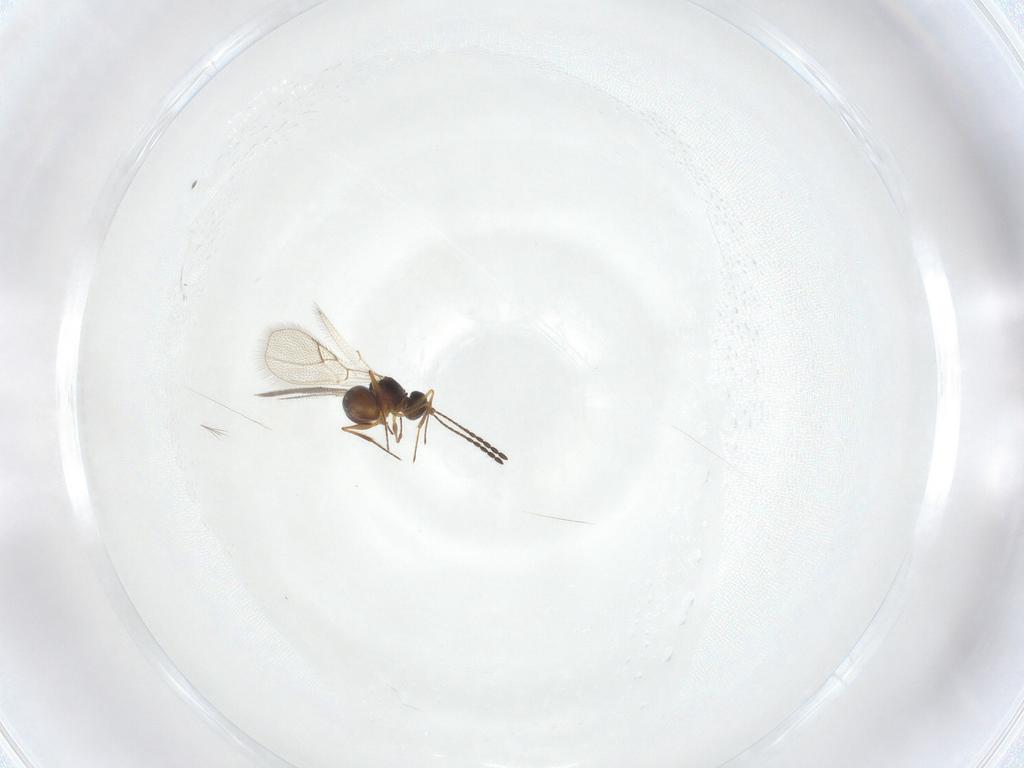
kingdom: Animalia
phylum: Arthropoda
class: Insecta
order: Hymenoptera
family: Figitidae
